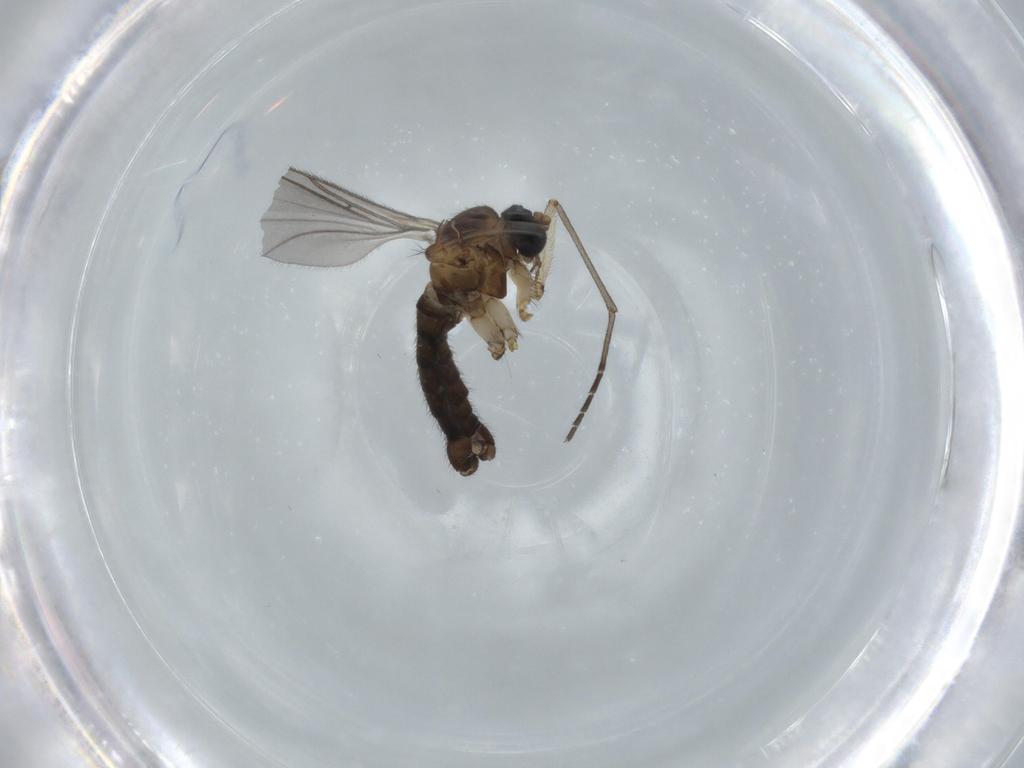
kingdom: Animalia
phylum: Arthropoda
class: Insecta
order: Diptera
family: Sciaridae
